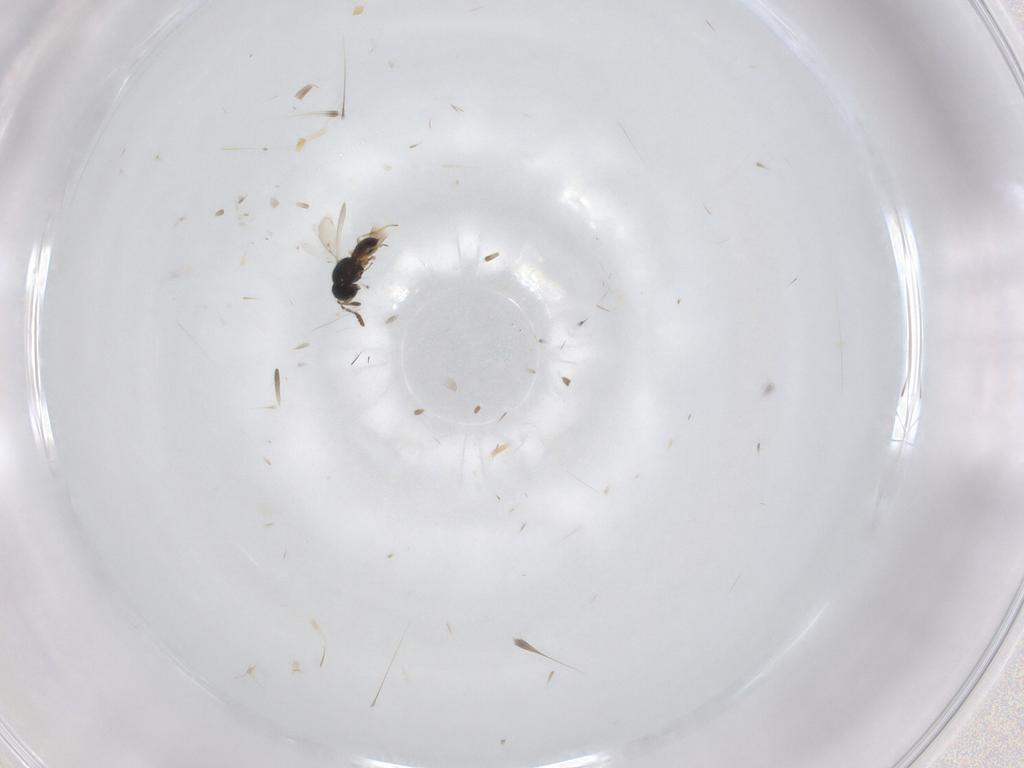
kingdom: Animalia
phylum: Arthropoda
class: Insecta
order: Hymenoptera
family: Scelionidae
